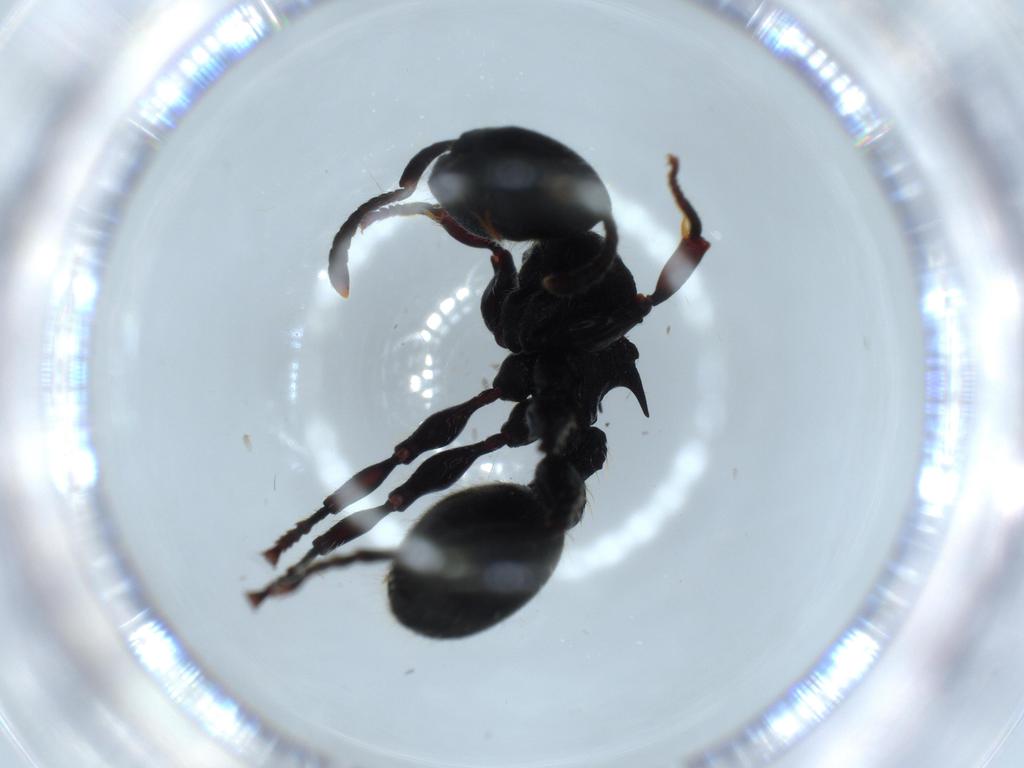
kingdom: Animalia
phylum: Arthropoda
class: Insecta
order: Hymenoptera
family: Formicidae
